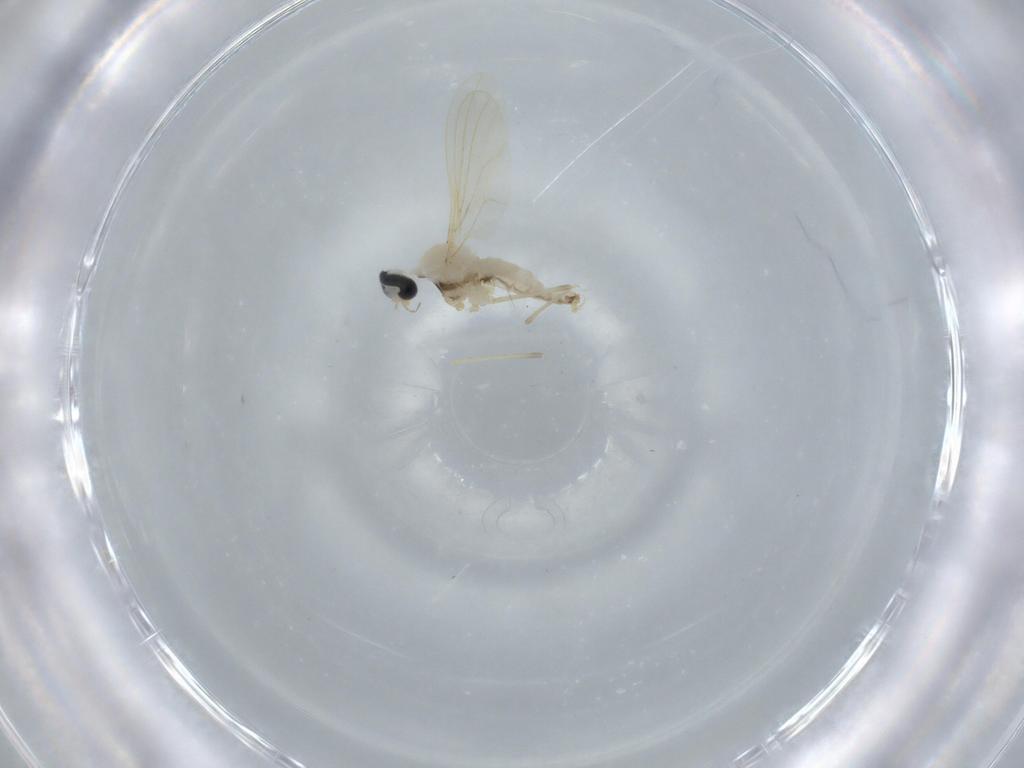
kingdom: Animalia
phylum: Arthropoda
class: Insecta
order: Diptera
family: Cecidomyiidae
